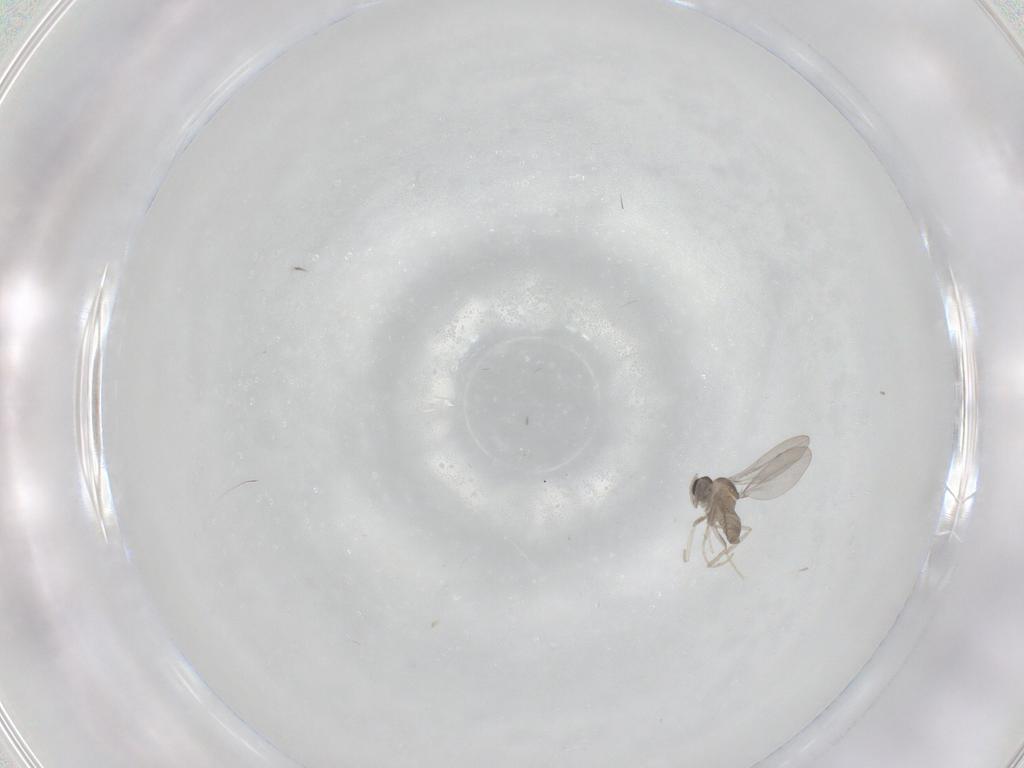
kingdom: Animalia
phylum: Arthropoda
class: Insecta
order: Diptera
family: Cecidomyiidae
